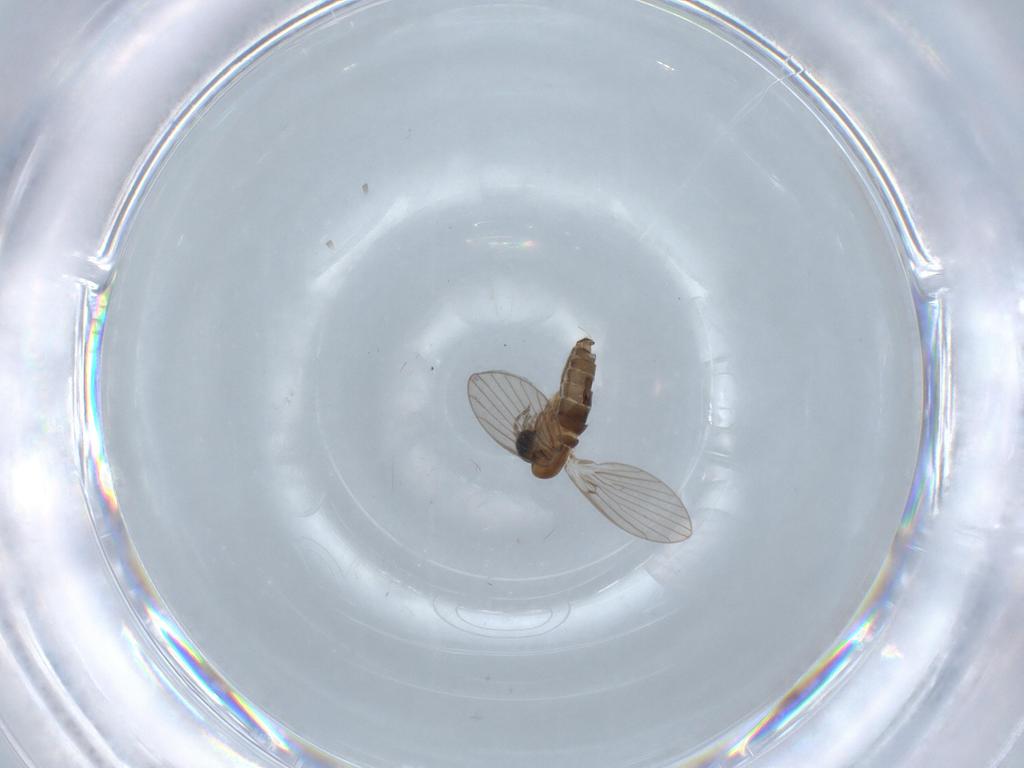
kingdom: Animalia
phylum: Arthropoda
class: Insecta
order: Diptera
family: Psychodidae
